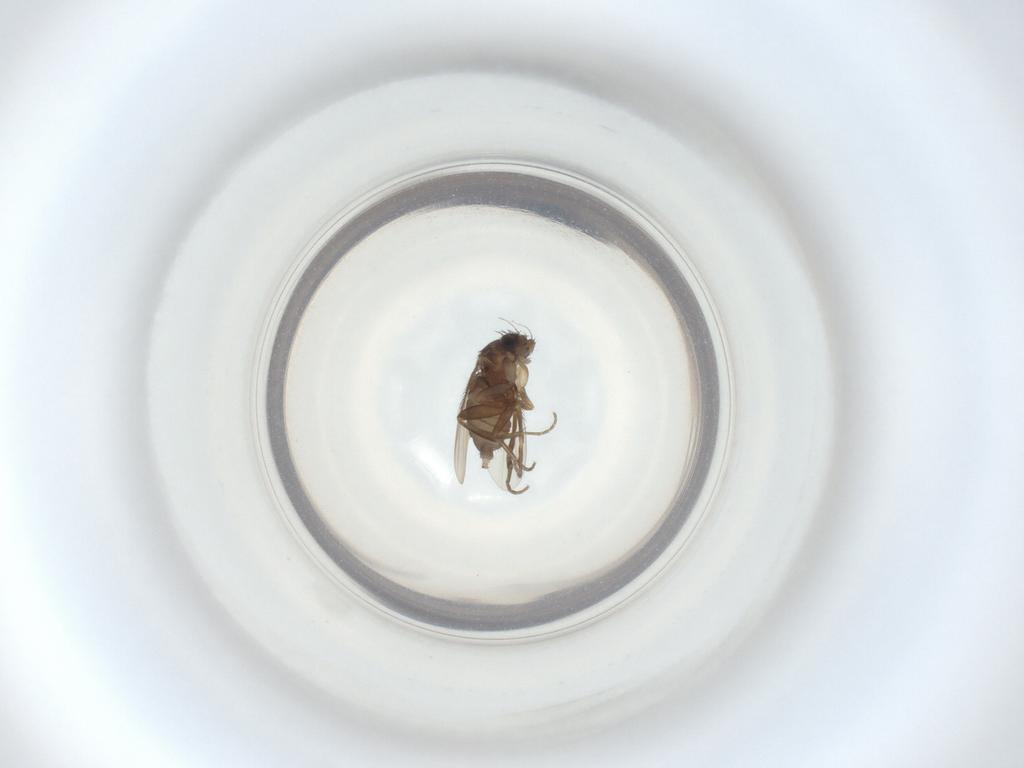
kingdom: Animalia
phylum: Arthropoda
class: Insecta
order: Diptera
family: Phoridae
